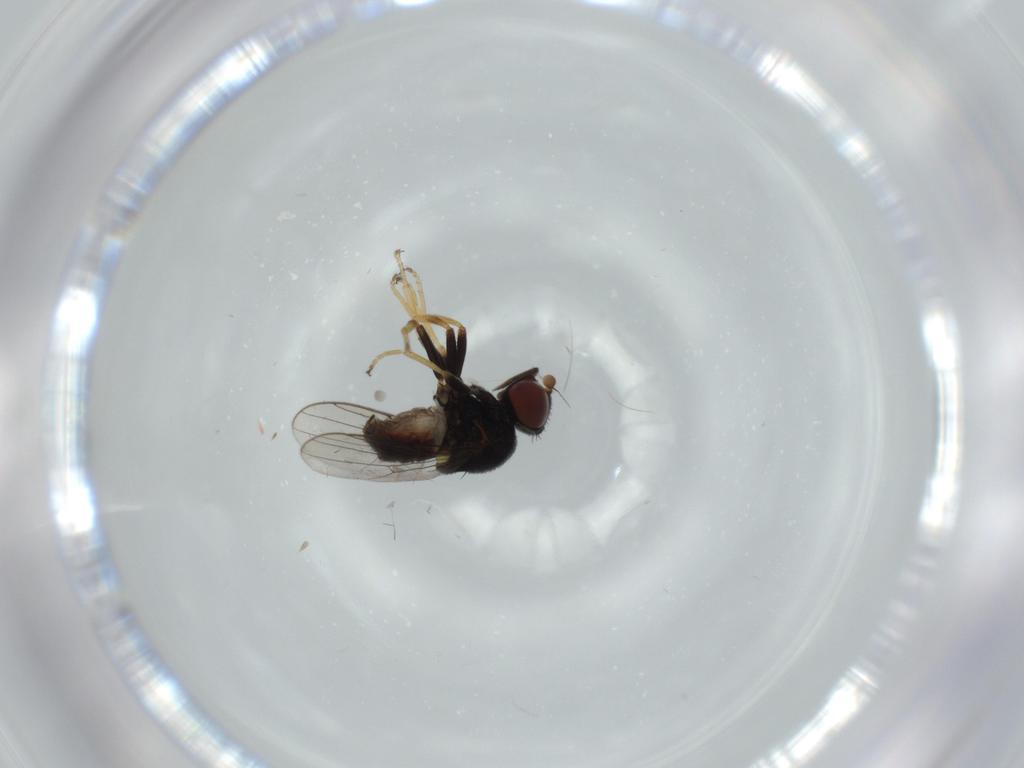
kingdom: Animalia
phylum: Arthropoda
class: Insecta
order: Diptera
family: Chloropidae
